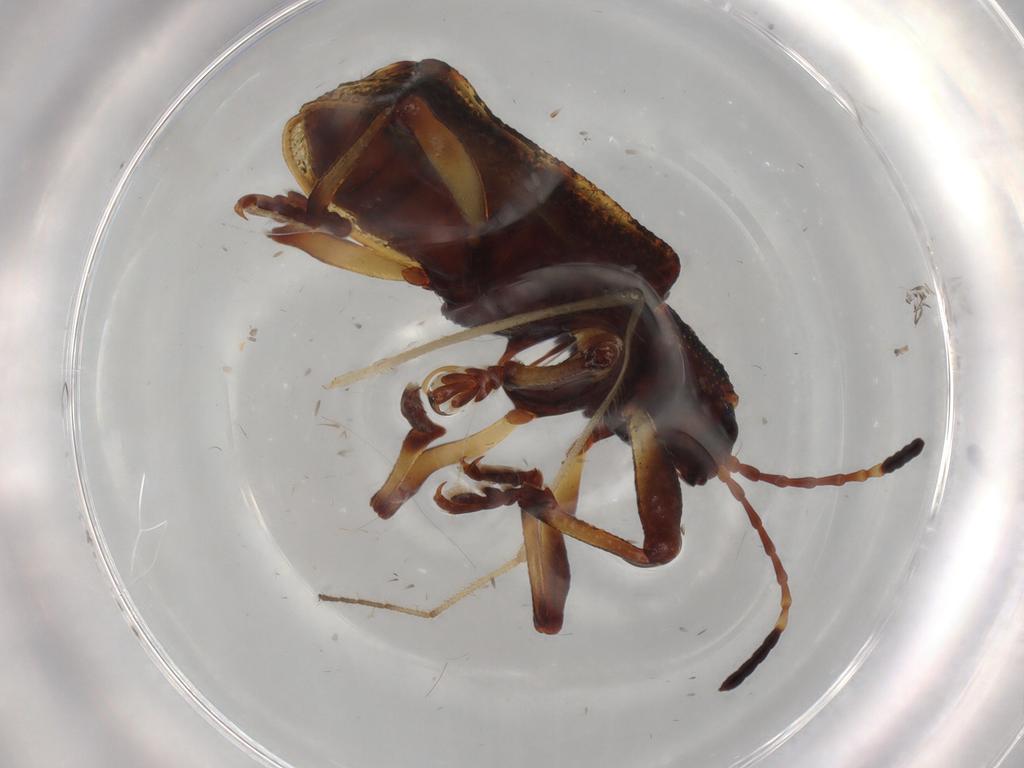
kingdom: Animalia
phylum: Arthropoda
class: Insecta
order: Coleoptera
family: Chrysomelidae
